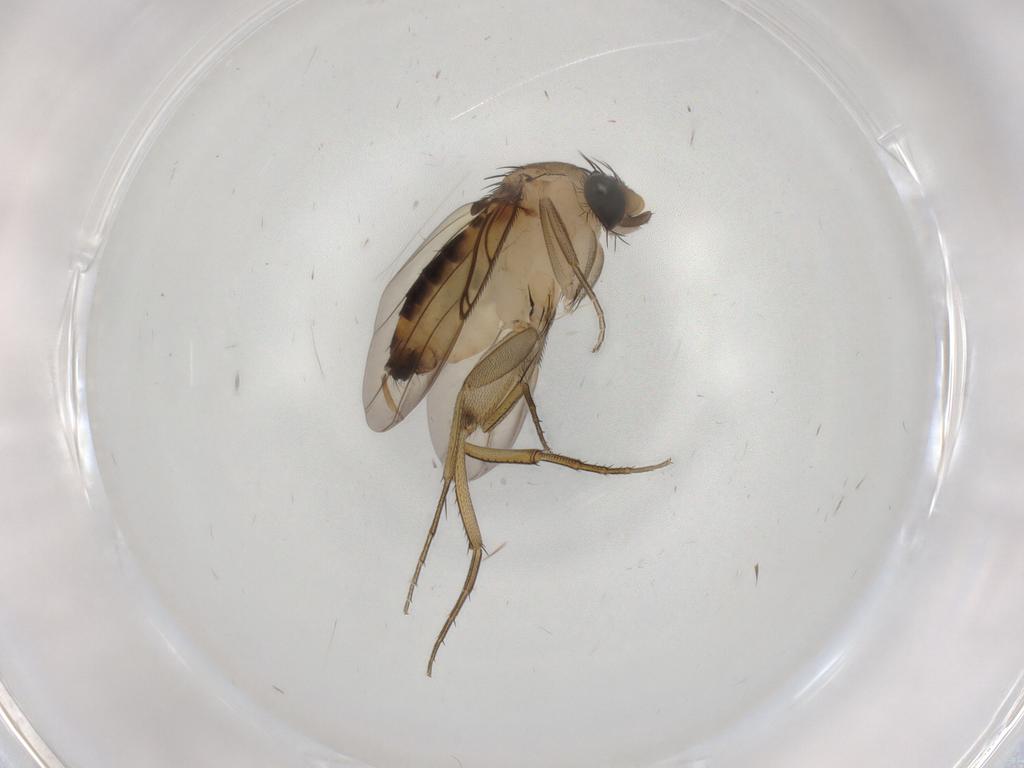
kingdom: Animalia
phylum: Arthropoda
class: Insecta
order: Diptera
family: Phoridae
